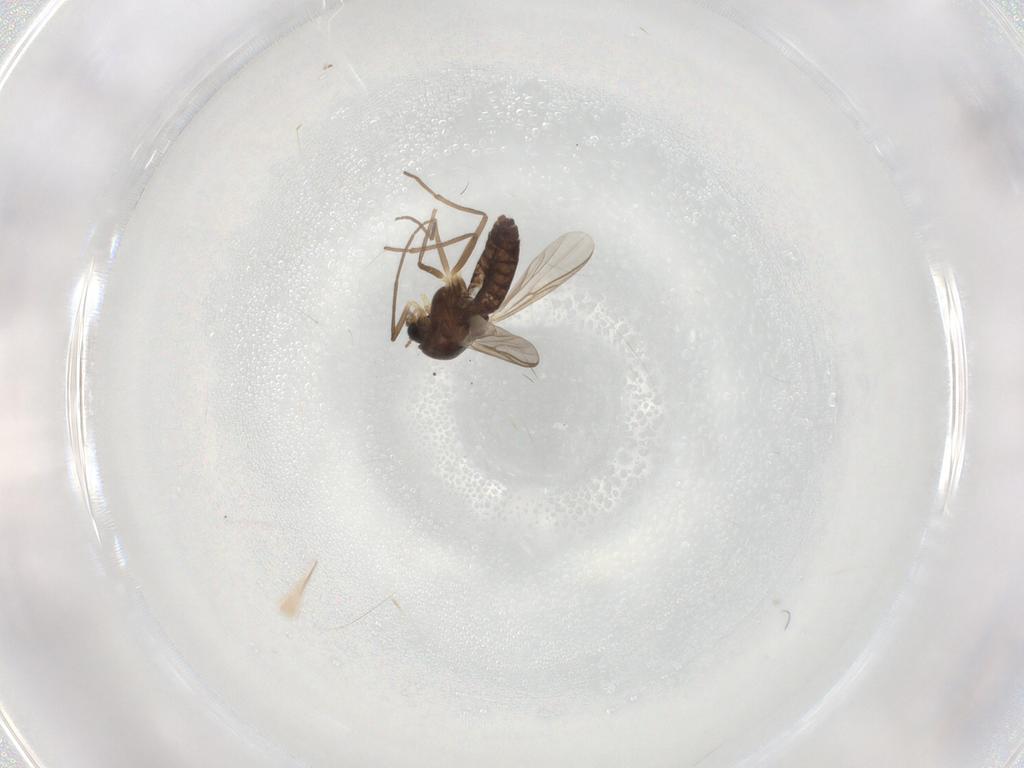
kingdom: Animalia
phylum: Arthropoda
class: Insecta
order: Diptera
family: Chironomidae
